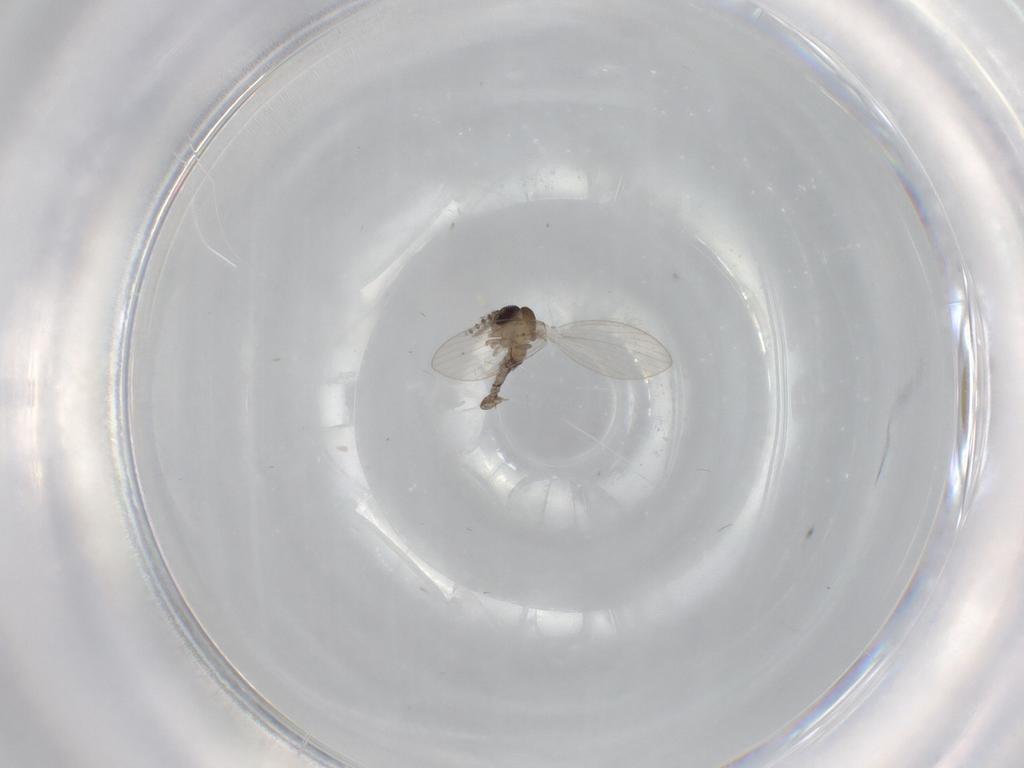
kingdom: Animalia
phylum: Arthropoda
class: Insecta
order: Diptera
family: Psychodidae
